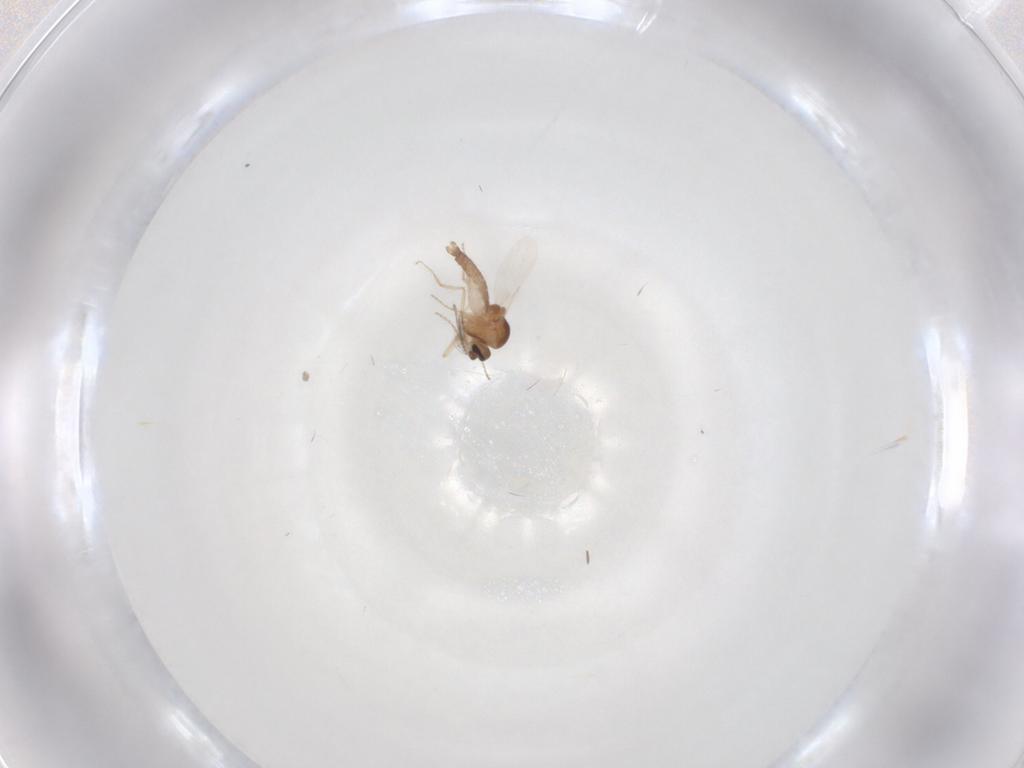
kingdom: Animalia
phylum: Arthropoda
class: Insecta
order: Diptera
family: Ceratopogonidae
